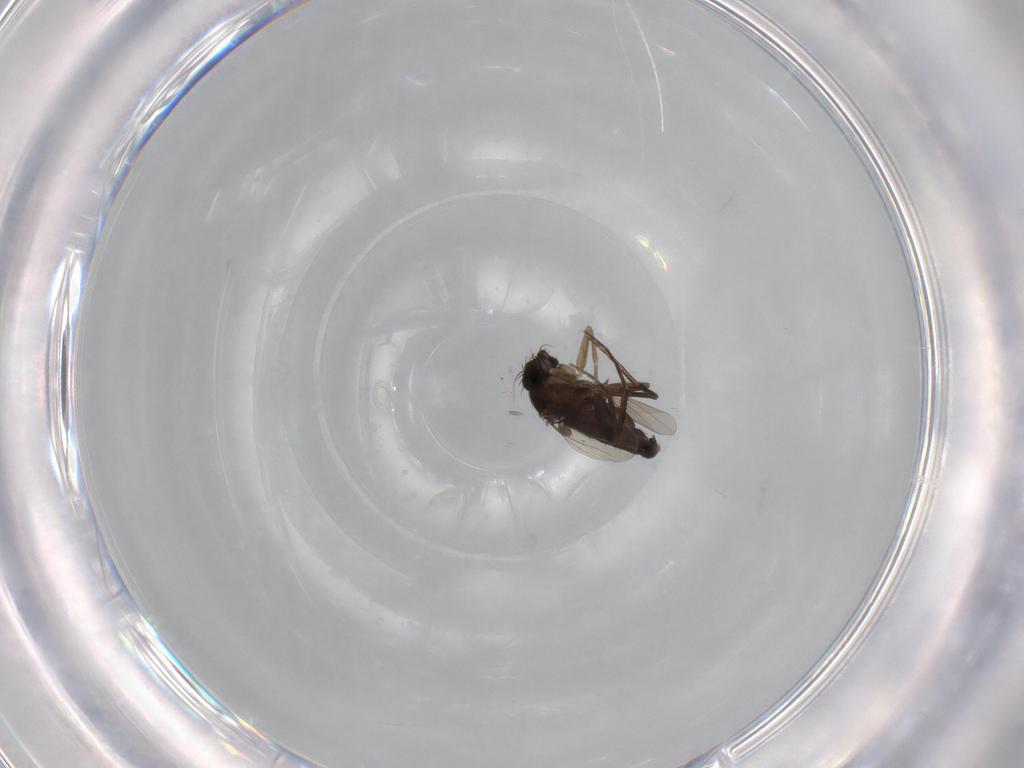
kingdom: Animalia
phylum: Arthropoda
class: Insecta
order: Diptera
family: Phoridae
